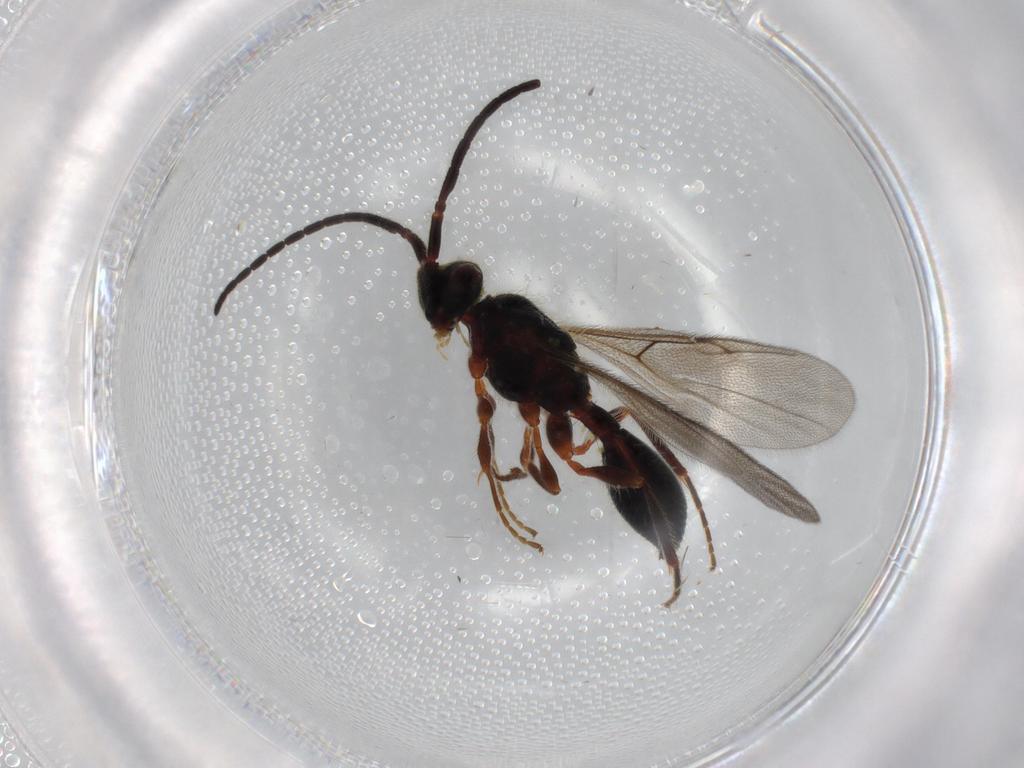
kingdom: Animalia
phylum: Arthropoda
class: Insecta
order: Hymenoptera
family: Diapriidae
